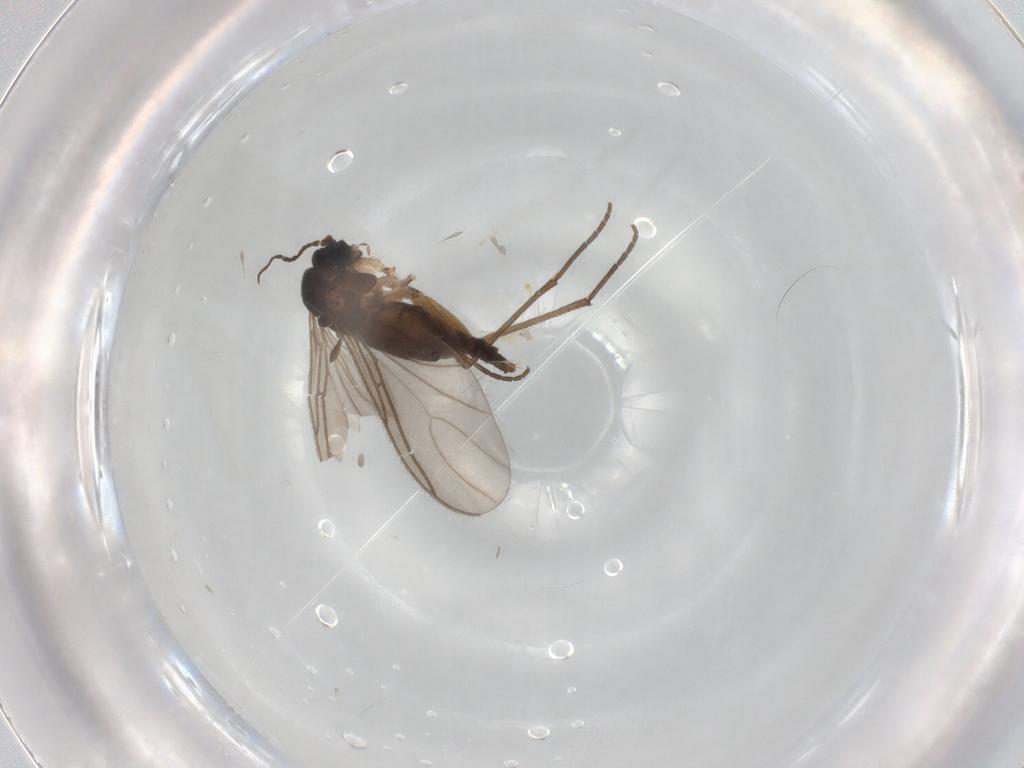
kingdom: Animalia
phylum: Arthropoda
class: Insecta
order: Diptera
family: Sciaridae
